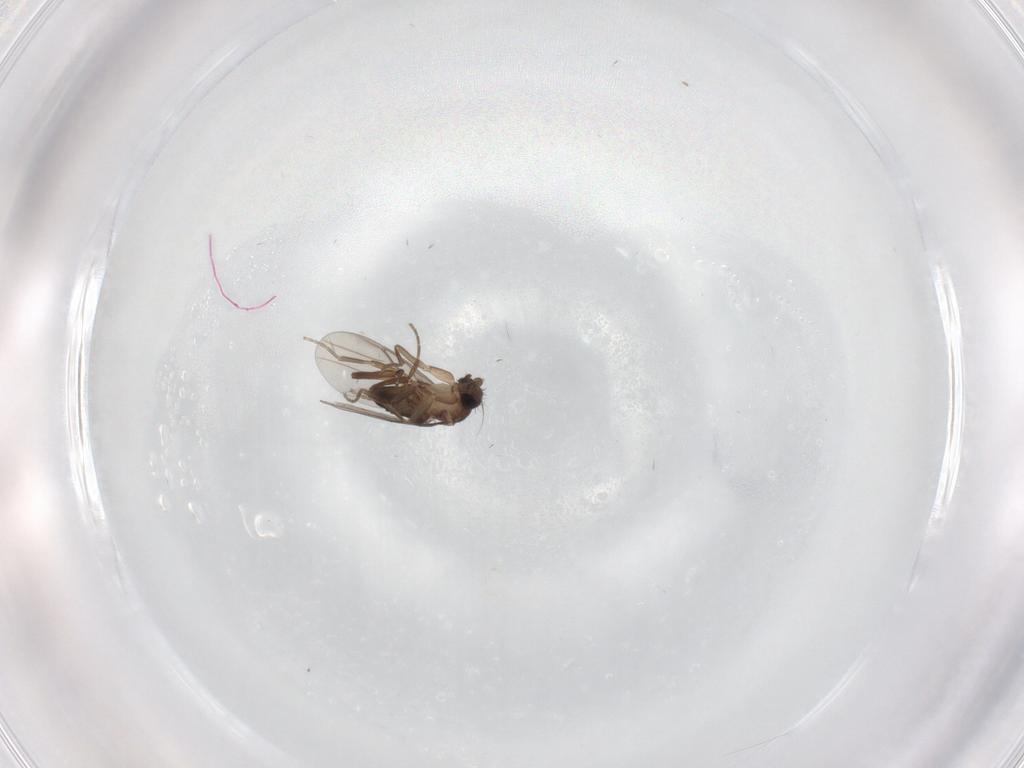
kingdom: Animalia
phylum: Arthropoda
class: Insecta
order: Diptera
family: Cecidomyiidae
